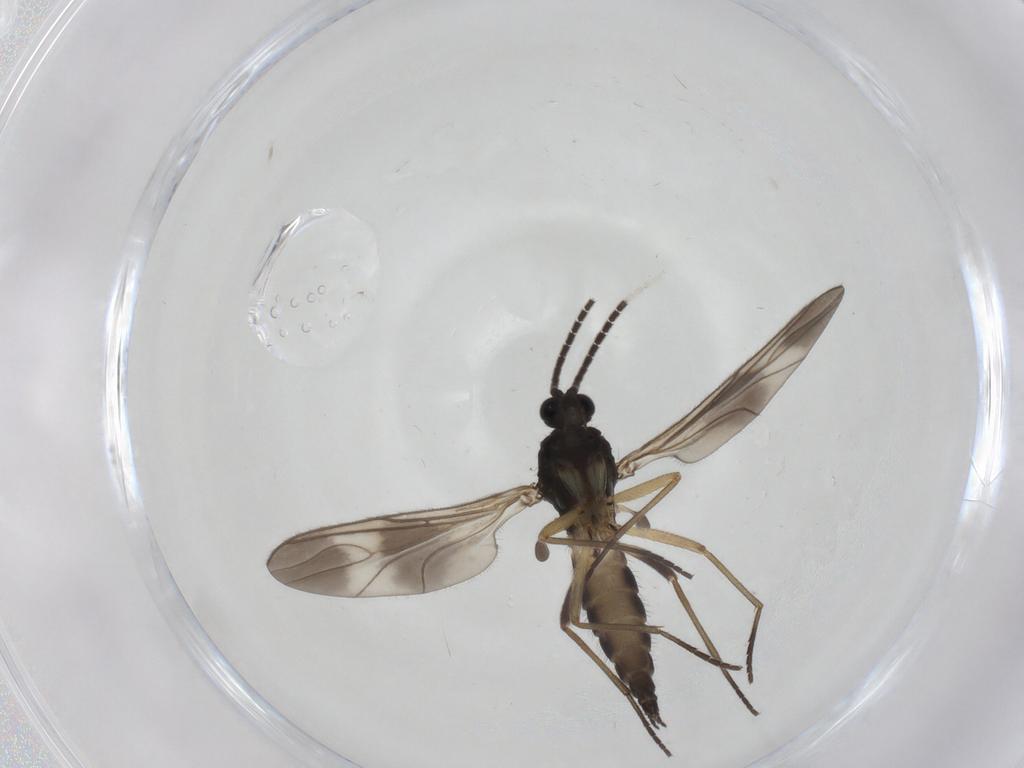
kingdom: Animalia
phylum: Arthropoda
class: Insecta
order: Diptera
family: Sciaridae
